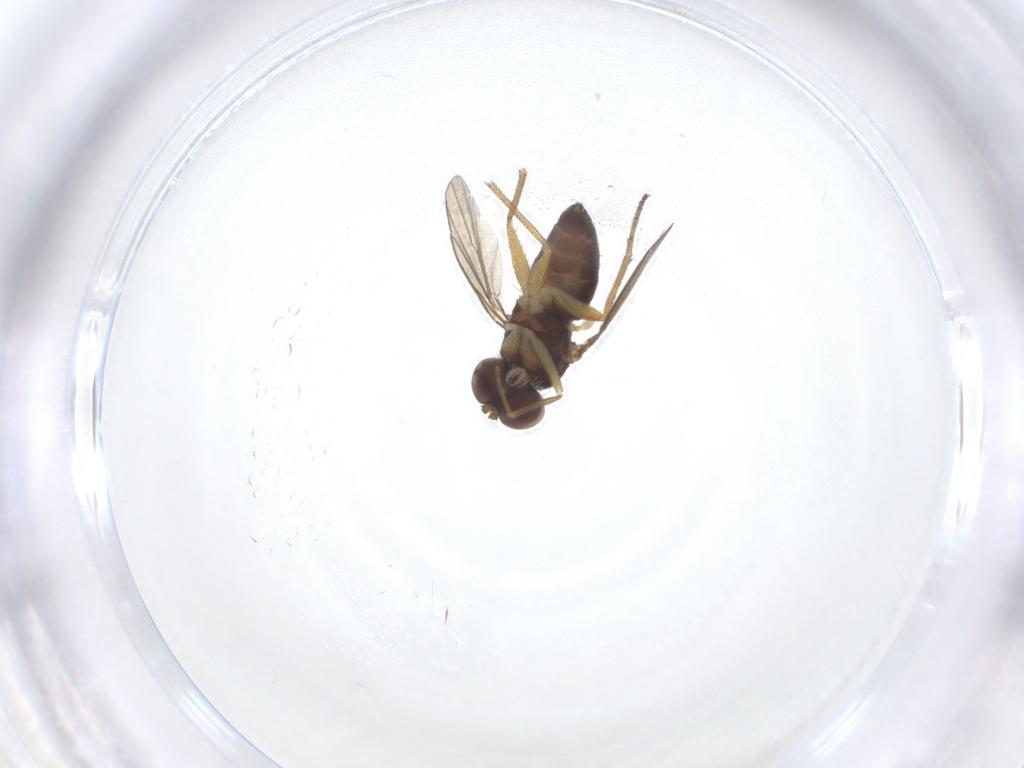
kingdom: Animalia
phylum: Arthropoda
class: Insecta
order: Diptera
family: Dolichopodidae
